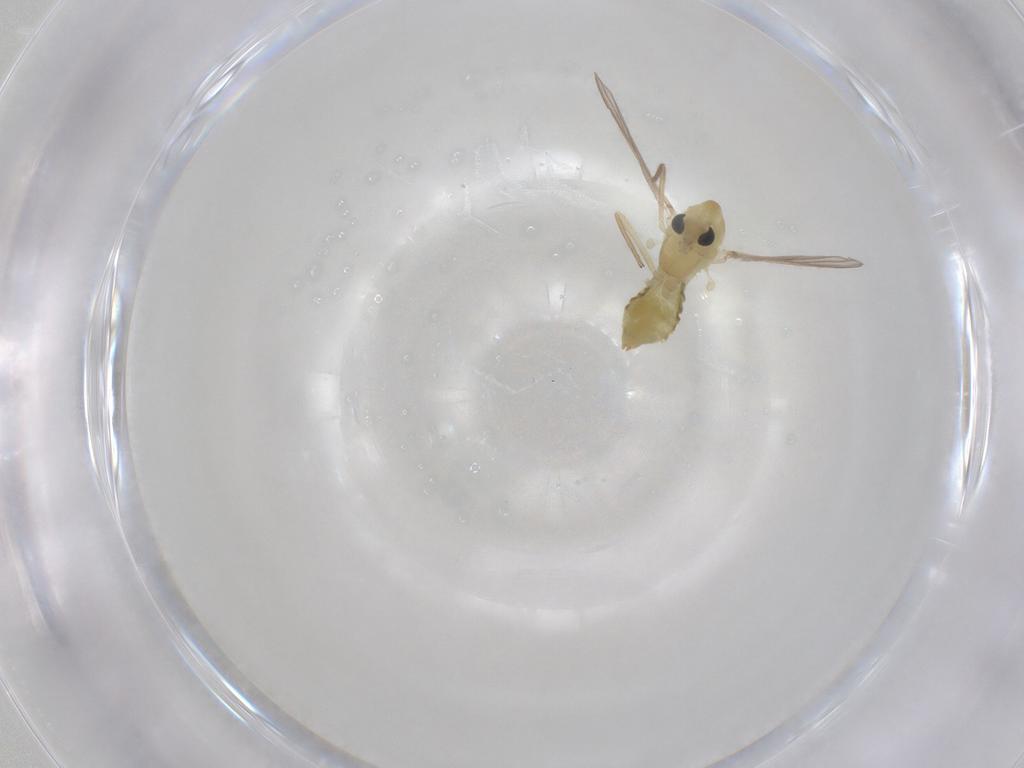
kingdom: Animalia
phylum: Arthropoda
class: Insecta
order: Diptera
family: Chironomidae
